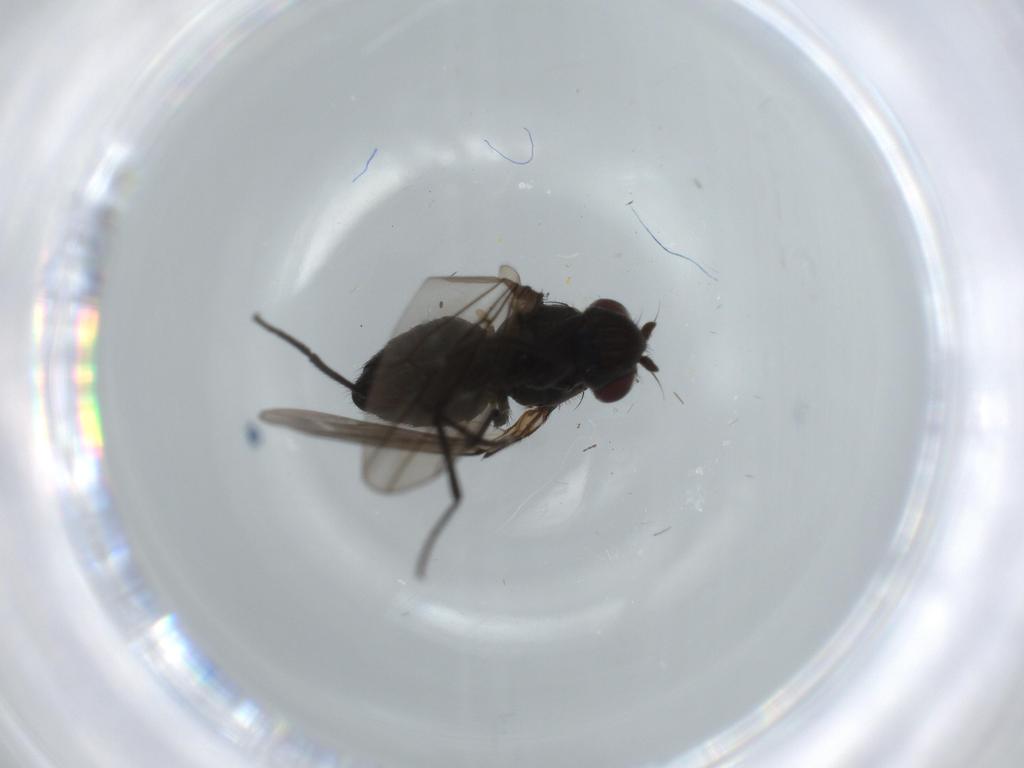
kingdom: Animalia
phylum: Arthropoda
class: Insecta
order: Diptera
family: Ephydridae
